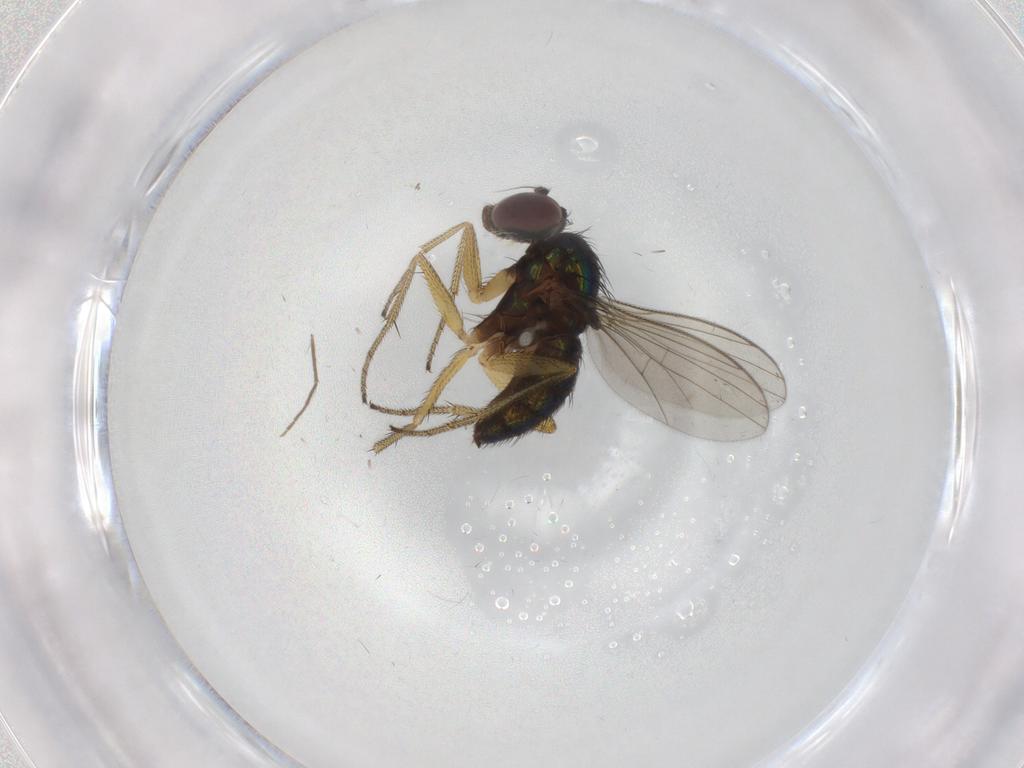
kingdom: Animalia
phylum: Arthropoda
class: Insecta
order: Diptera
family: Chironomidae
